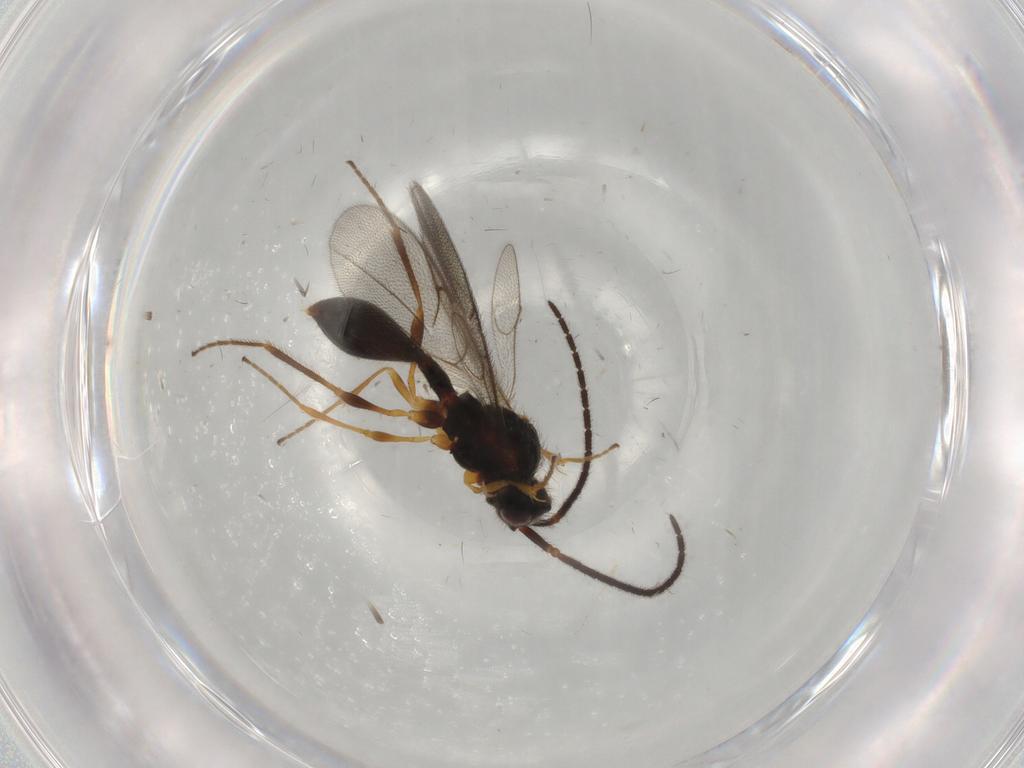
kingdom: Animalia
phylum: Arthropoda
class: Insecta
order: Hymenoptera
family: Diapriidae
